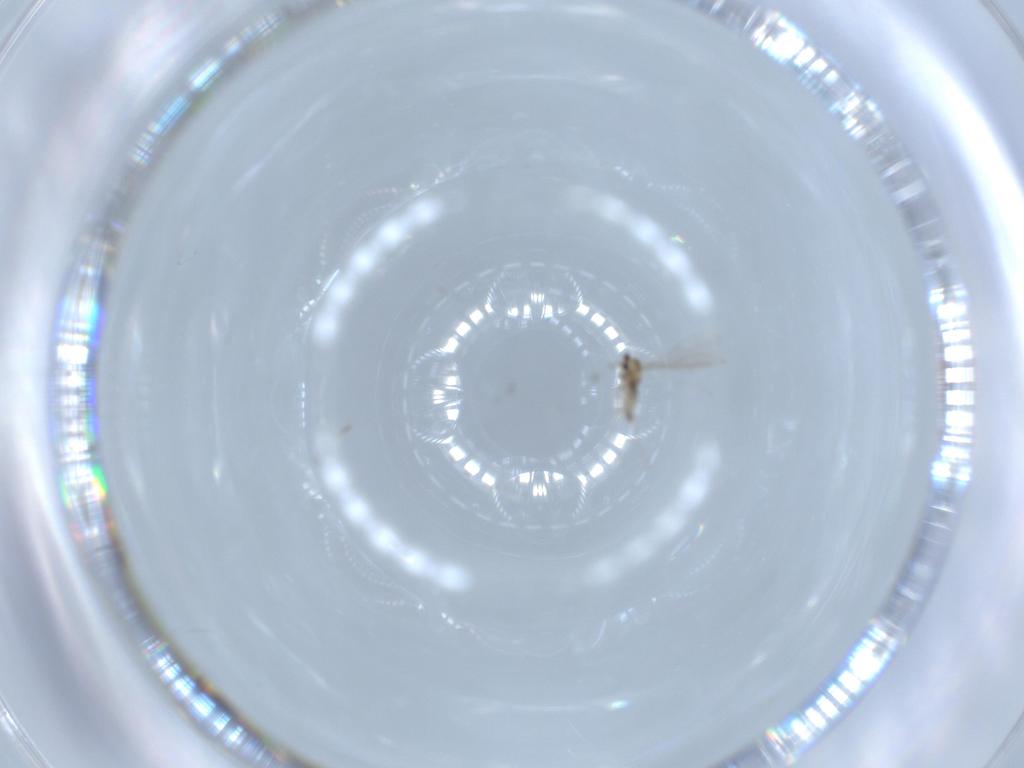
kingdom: Animalia
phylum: Arthropoda
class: Insecta
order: Diptera
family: Cecidomyiidae
